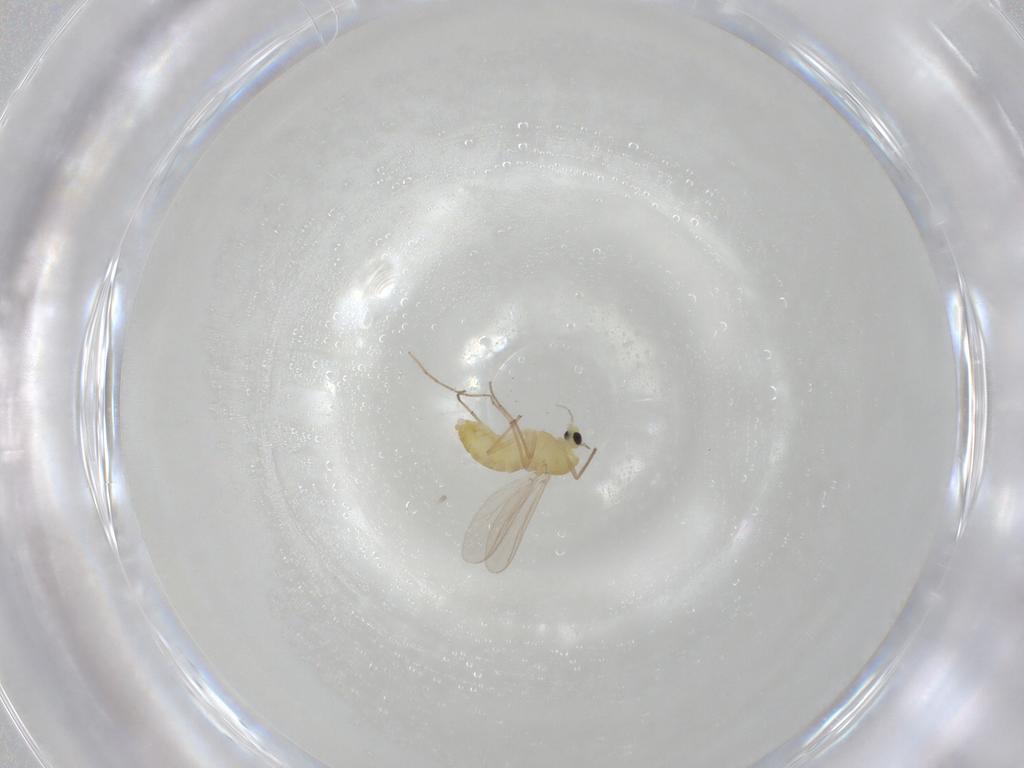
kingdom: Animalia
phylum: Arthropoda
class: Insecta
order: Diptera
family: Chironomidae
